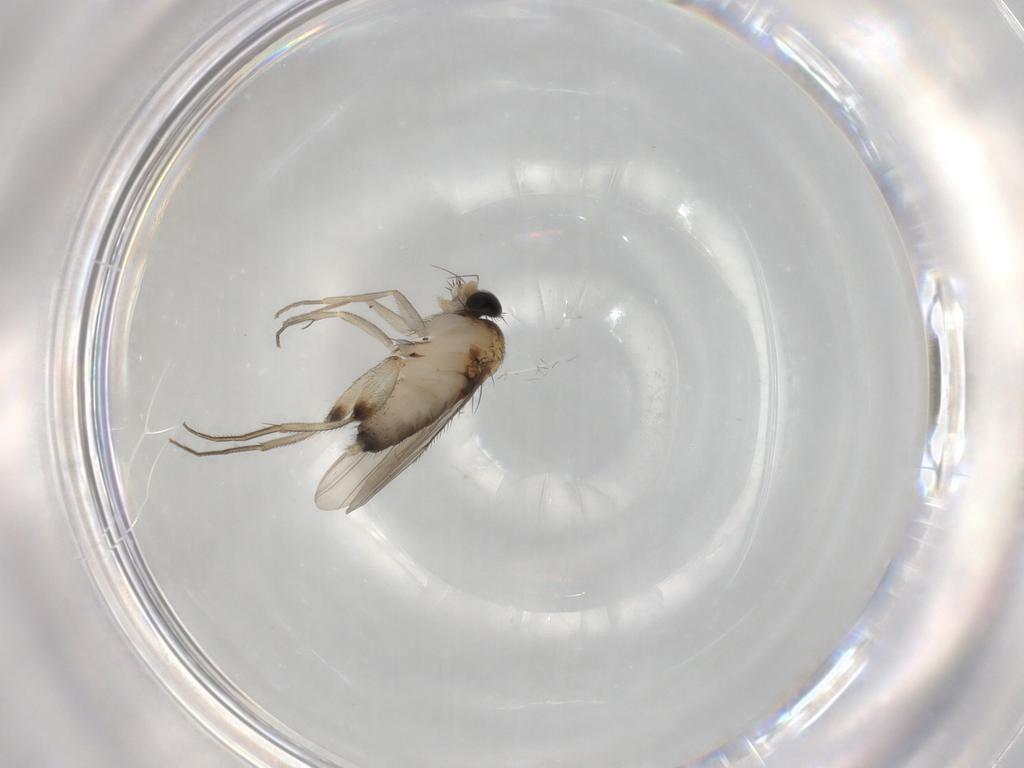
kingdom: Animalia
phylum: Arthropoda
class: Insecta
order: Diptera
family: Phoridae
